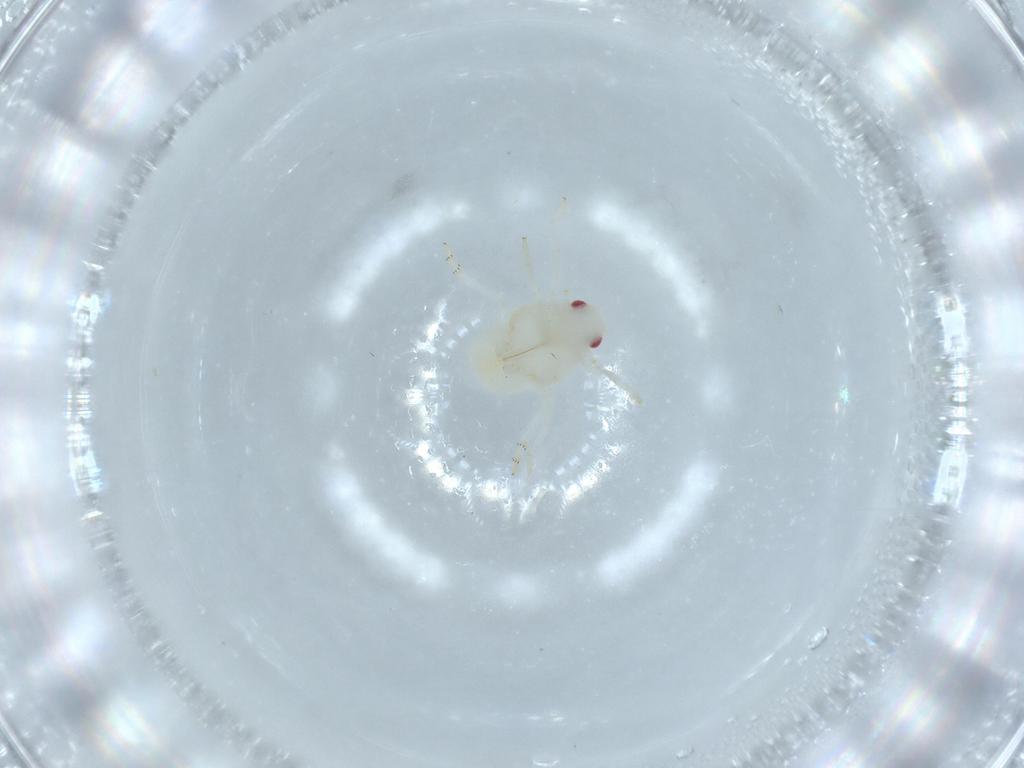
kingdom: Animalia
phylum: Arthropoda
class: Insecta
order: Hemiptera
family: Flatidae
